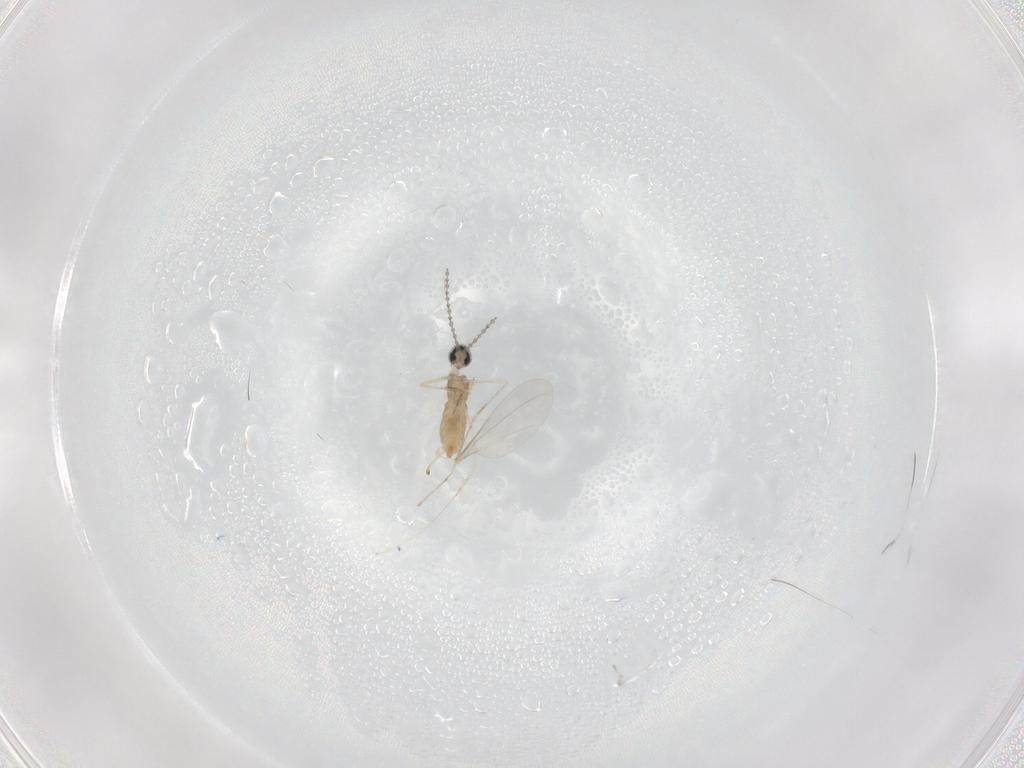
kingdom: Animalia
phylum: Arthropoda
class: Insecta
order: Diptera
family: Cecidomyiidae
